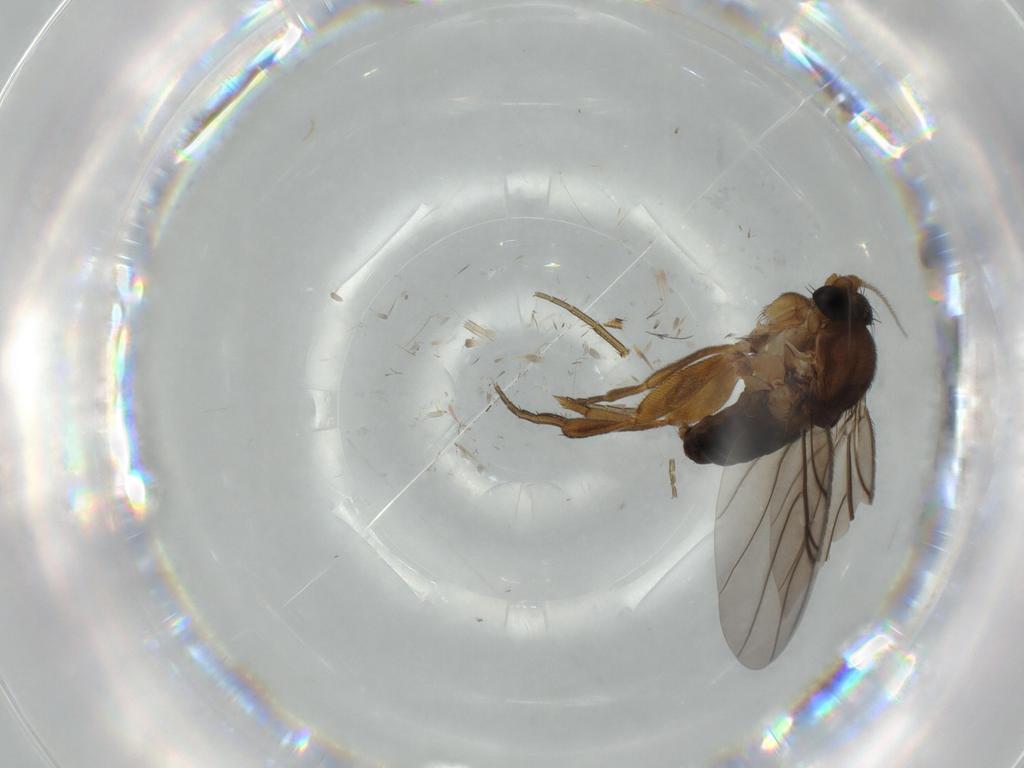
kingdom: Animalia
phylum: Arthropoda
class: Insecta
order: Diptera
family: Phoridae
